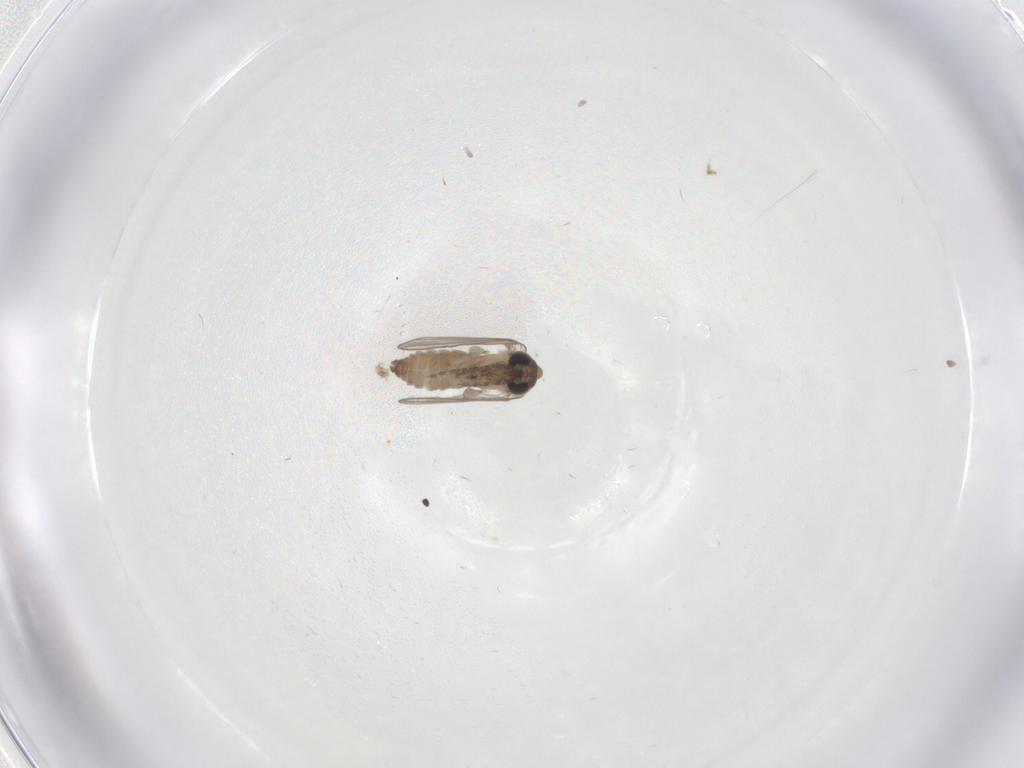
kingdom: Animalia
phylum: Arthropoda
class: Insecta
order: Diptera
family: Psychodidae
